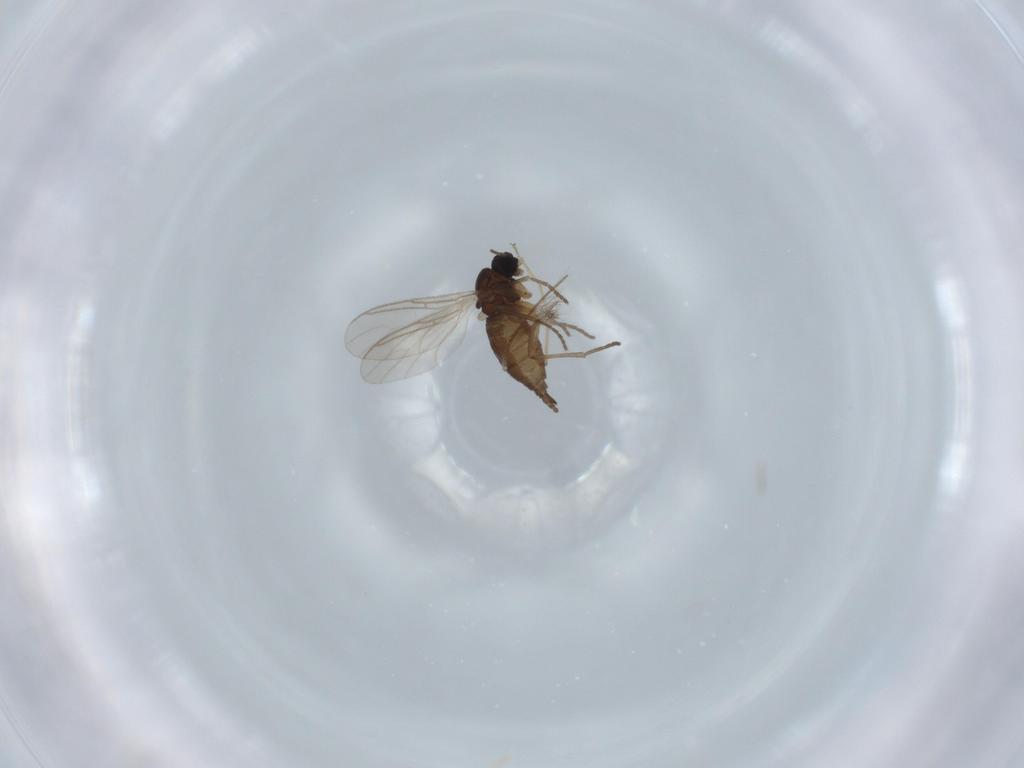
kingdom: Animalia
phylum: Arthropoda
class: Insecta
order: Diptera
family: Sciaridae
